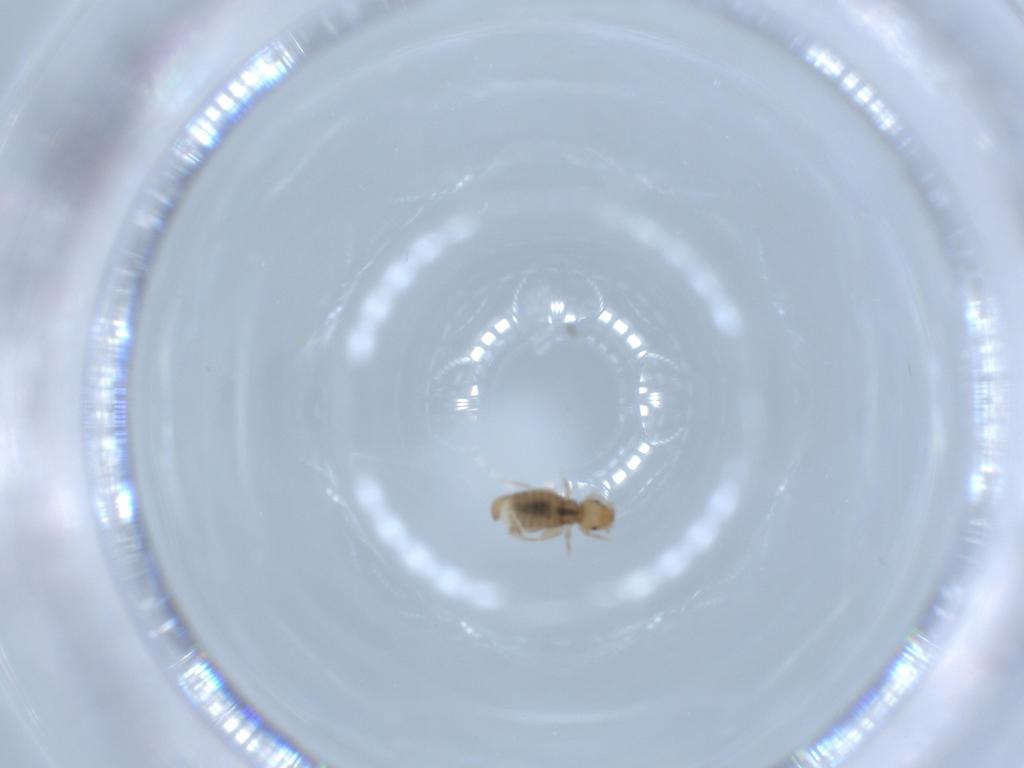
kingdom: Animalia
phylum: Arthropoda
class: Insecta
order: Psocodea
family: Liposcelididae
